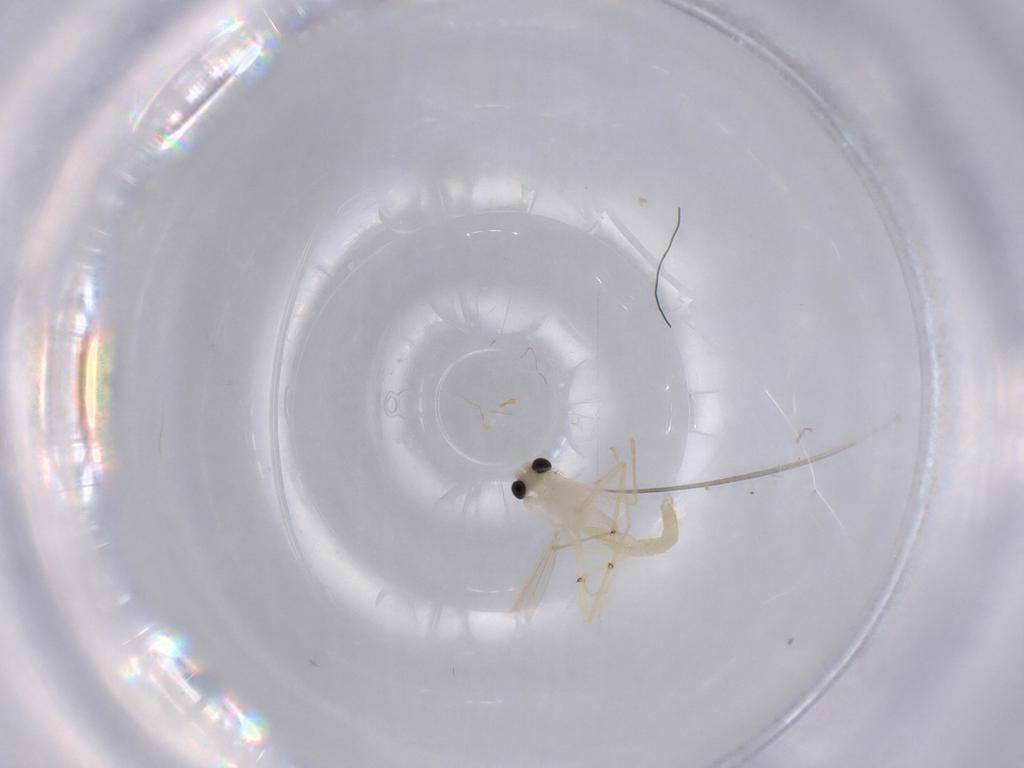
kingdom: Animalia
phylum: Arthropoda
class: Insecta
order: Diptera
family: Chironomidae
